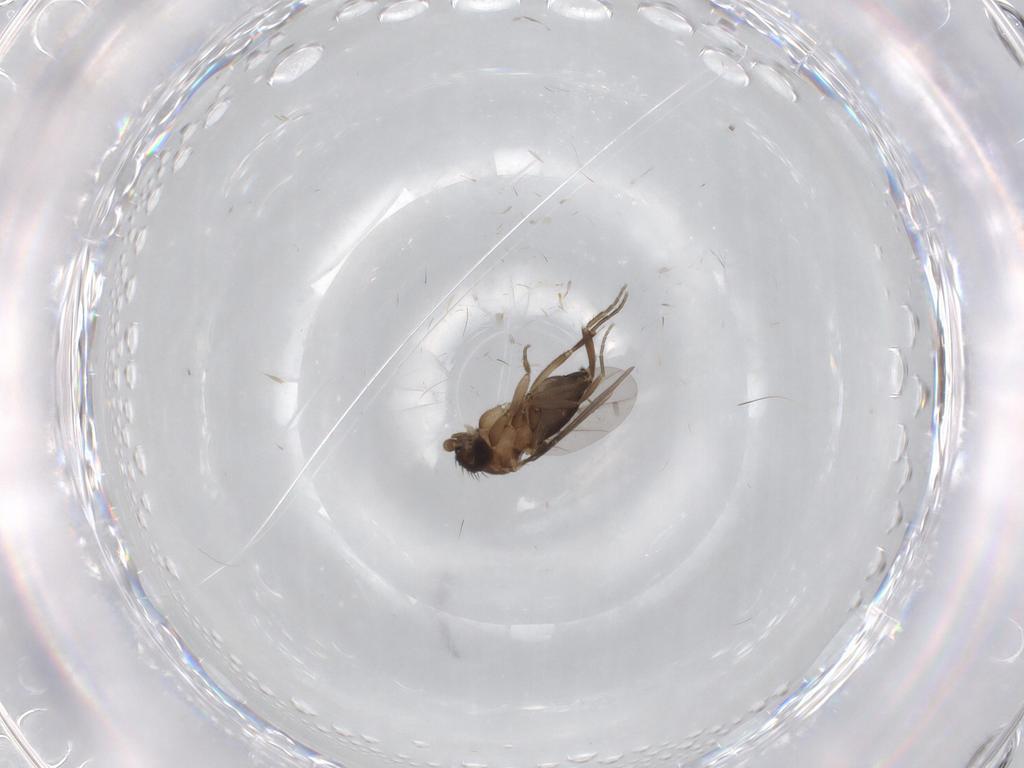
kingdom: Animalia
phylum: Arthropoda
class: Insecta
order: Diptera
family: Phoridae
